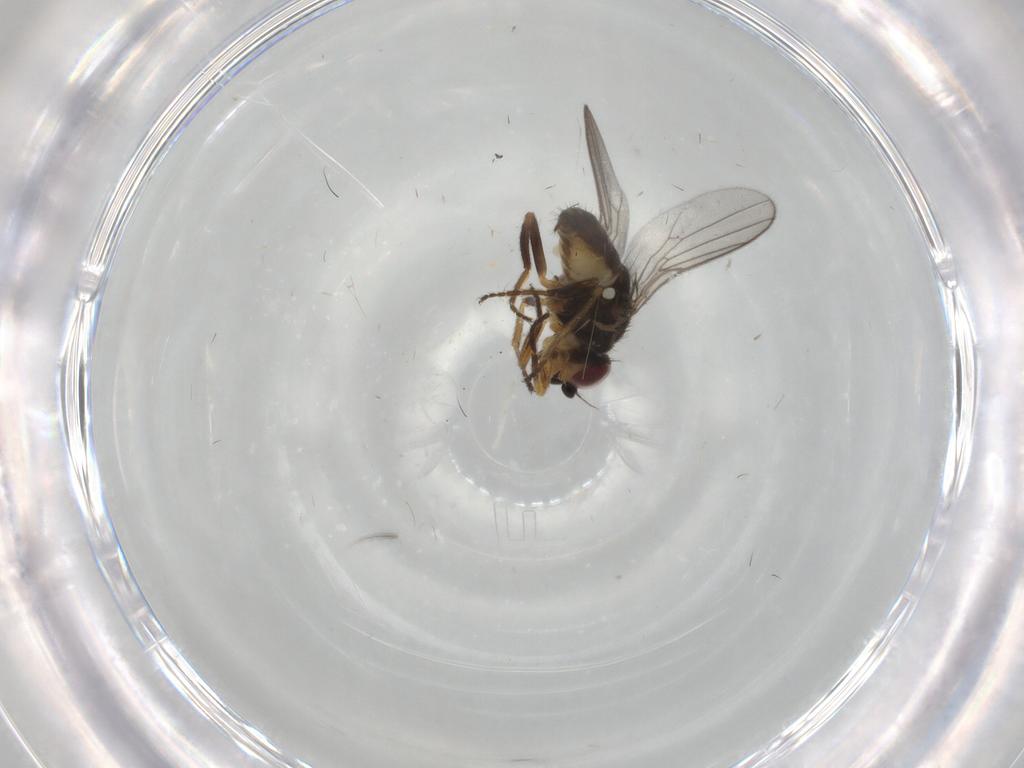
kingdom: Animalia
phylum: Arthropoda
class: Insecta
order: Diptera
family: Chloropidae
